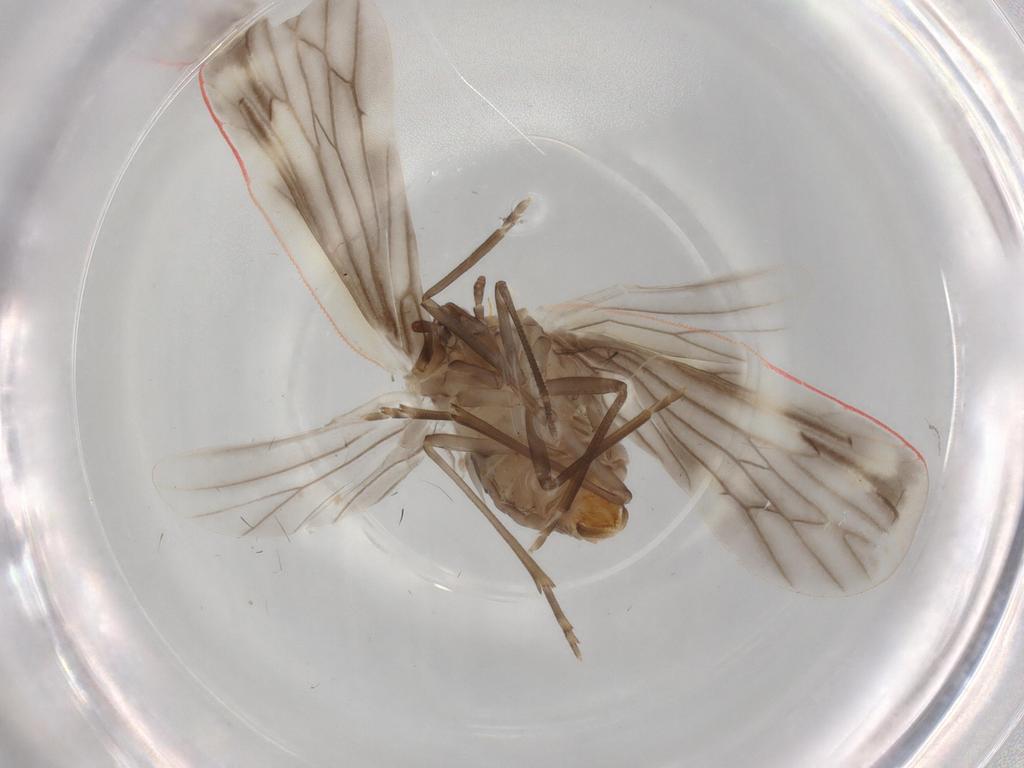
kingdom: Animalia
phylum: Arthropoda
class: Insecta
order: Hemiptera
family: Derbidae
